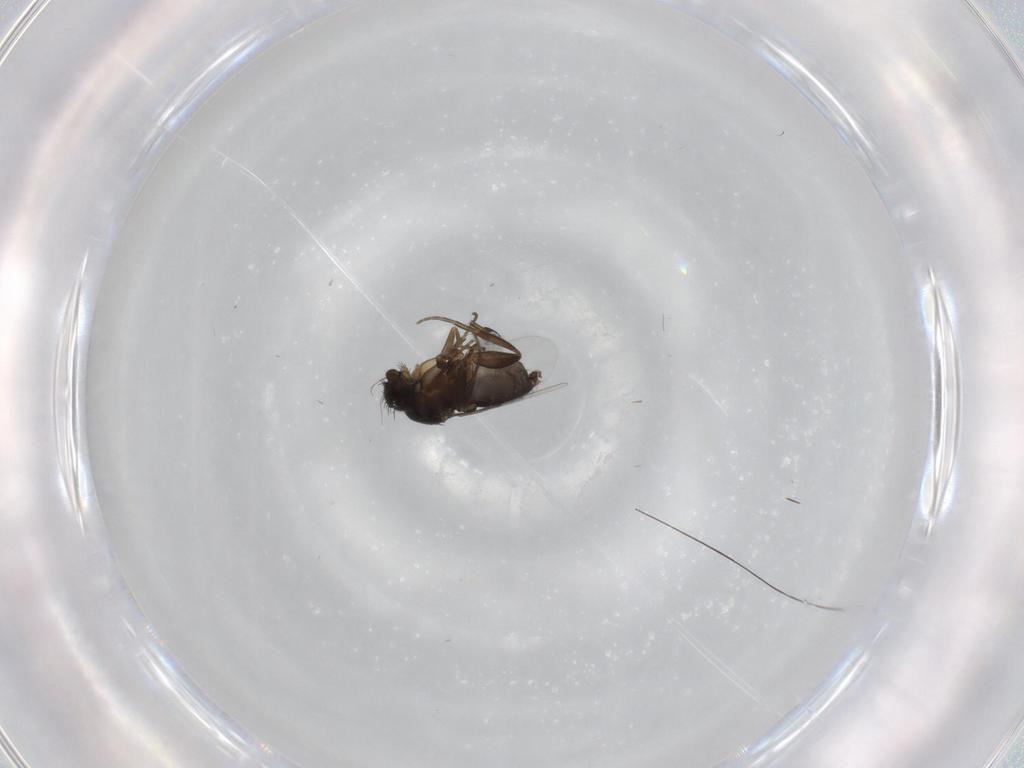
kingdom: Animalia
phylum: Arthropoda
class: Insecta
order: Diptera
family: Phoridae
